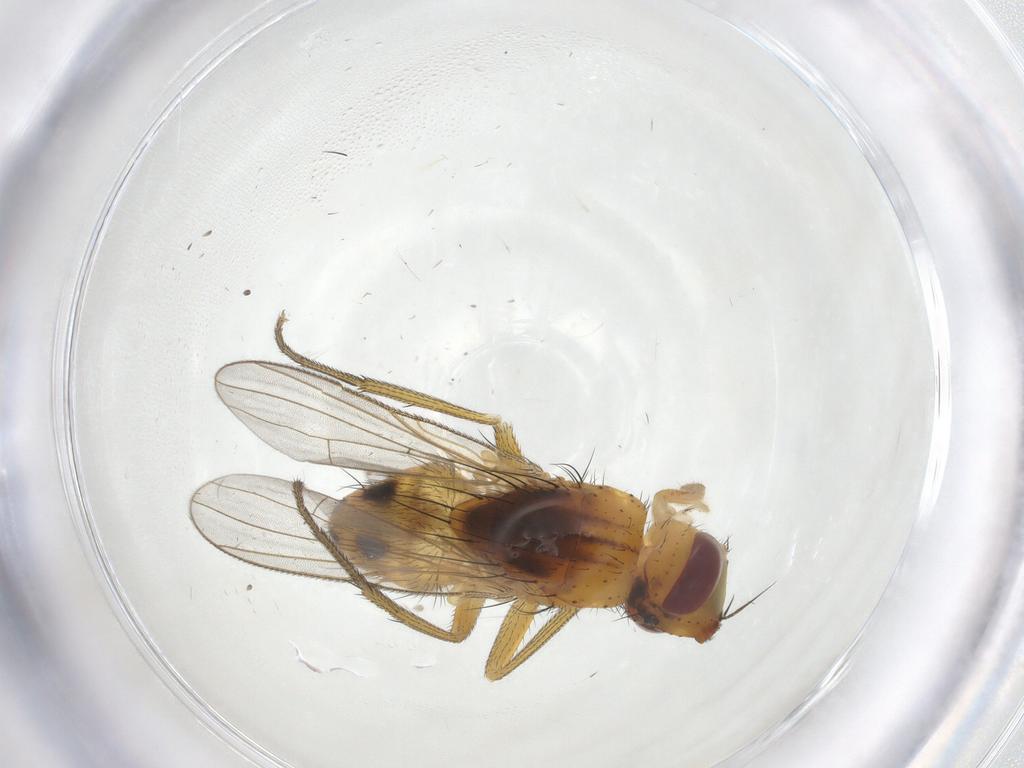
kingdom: Animalia
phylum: Arthropoda
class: Insecta
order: Diptera
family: Muscidae
